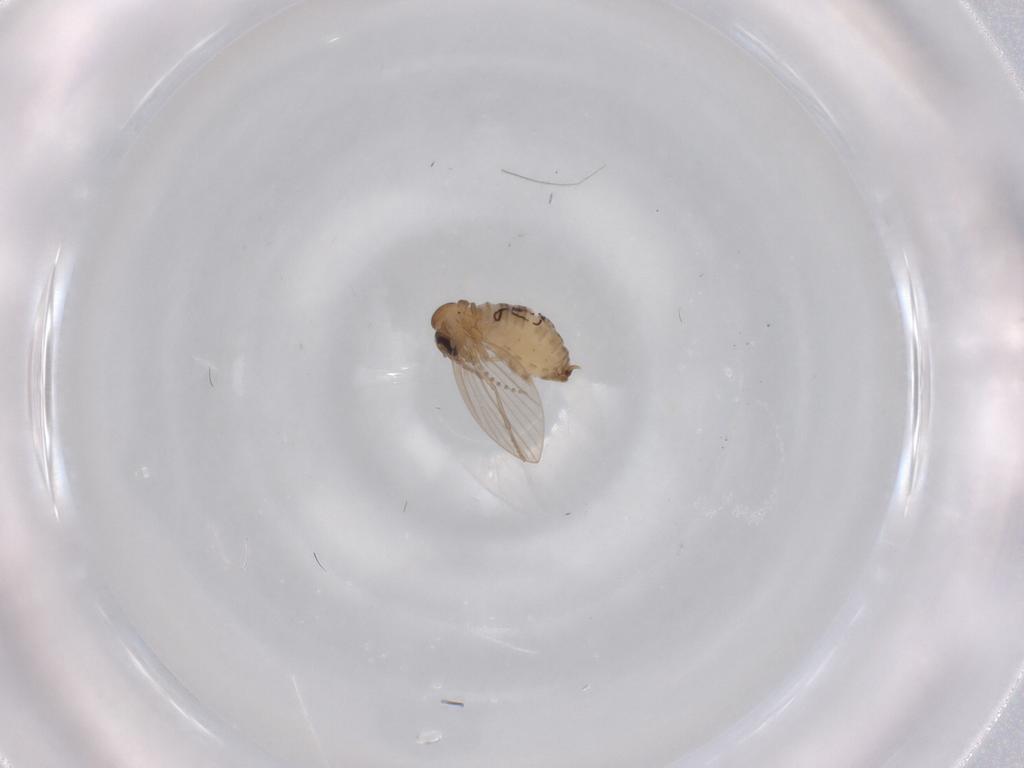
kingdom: Animalia
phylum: Arthropoda
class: Insecta
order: Diptera
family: Psychodidae
